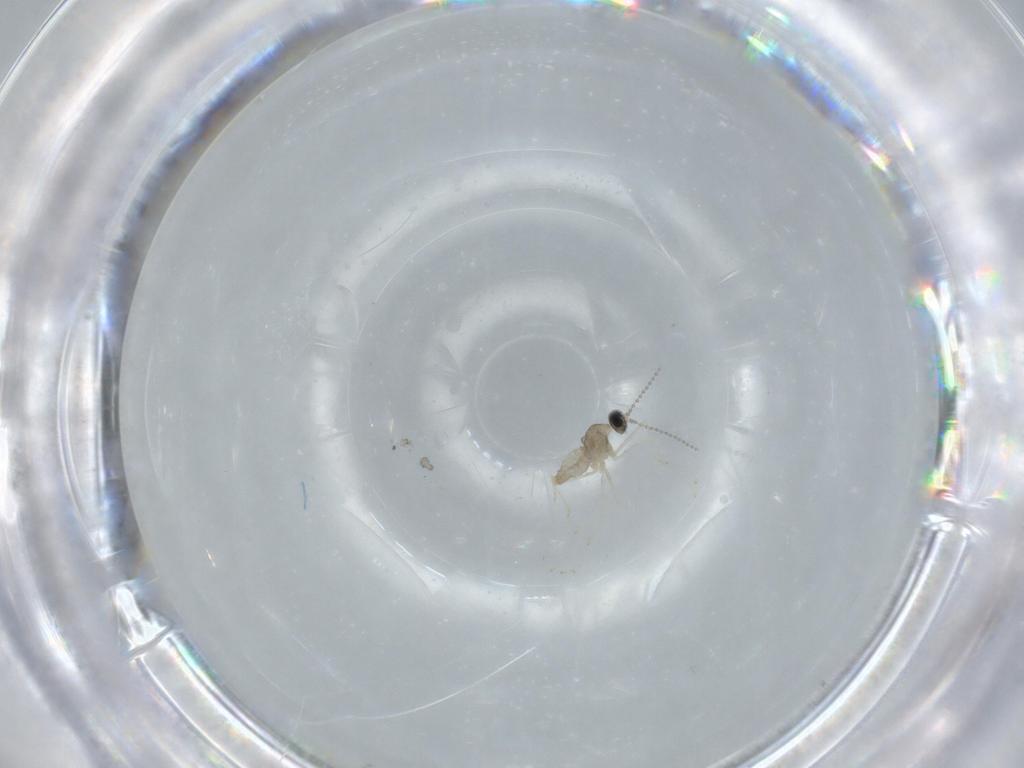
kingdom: Animalia
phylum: Arthropoda
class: Insecta
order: Diptera
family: Cecidomyiidae
